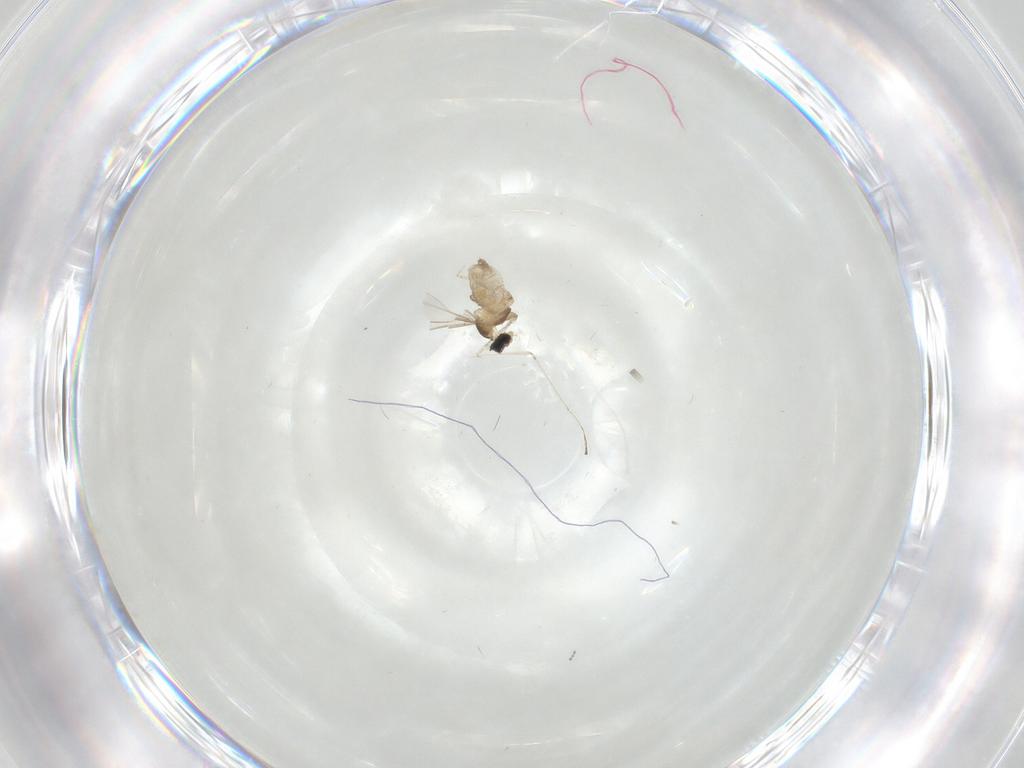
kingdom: Animalia
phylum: Arthropoda
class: Insecta
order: Diptera
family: Cecidomyiidae
